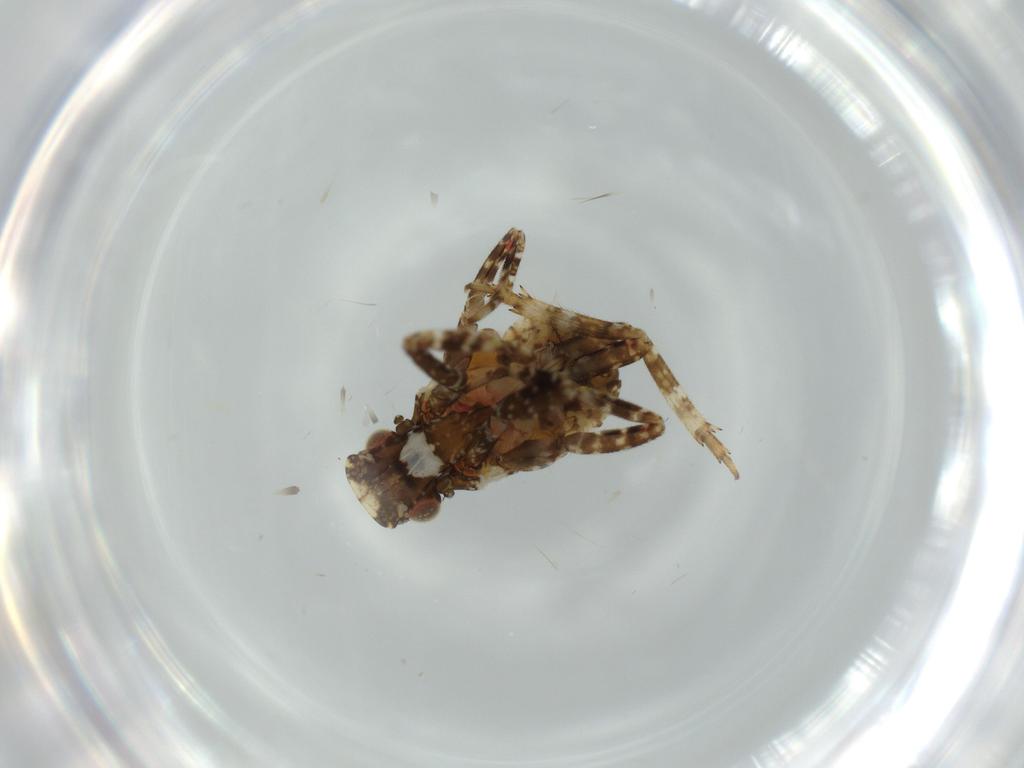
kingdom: Animalia
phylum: Arthropoda
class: Insecta
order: Hemiptera
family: Fulgoridae
